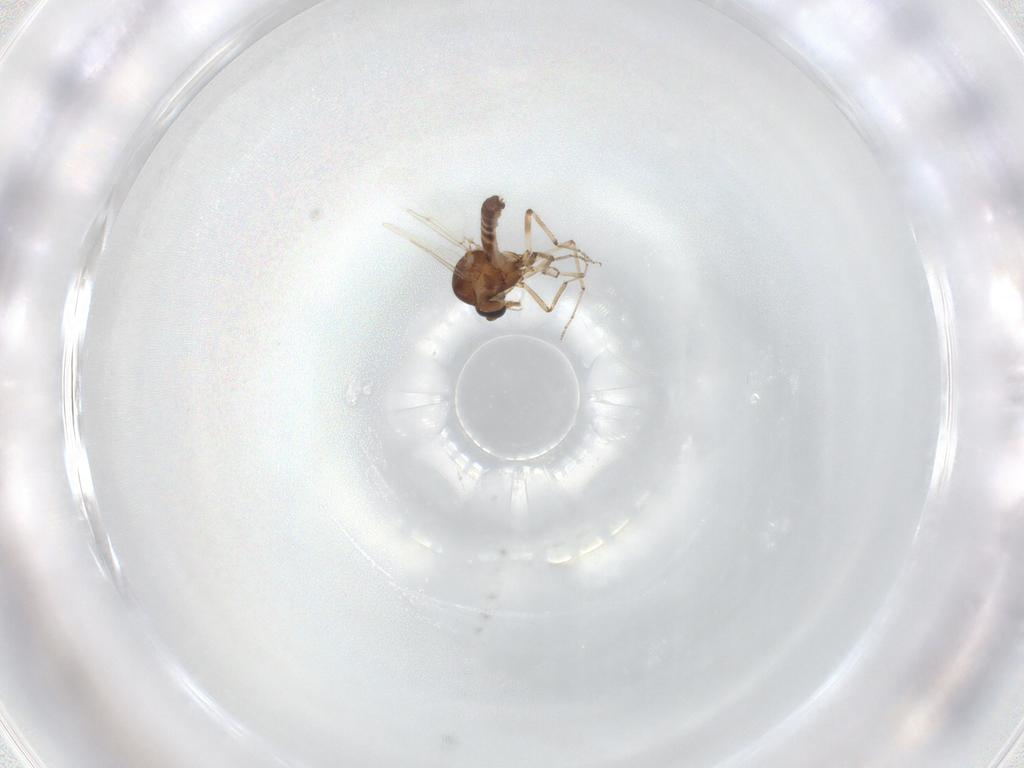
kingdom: Animalia
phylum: Arthropoda
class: Insecta
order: Diptera
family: Ceratopogonidae
